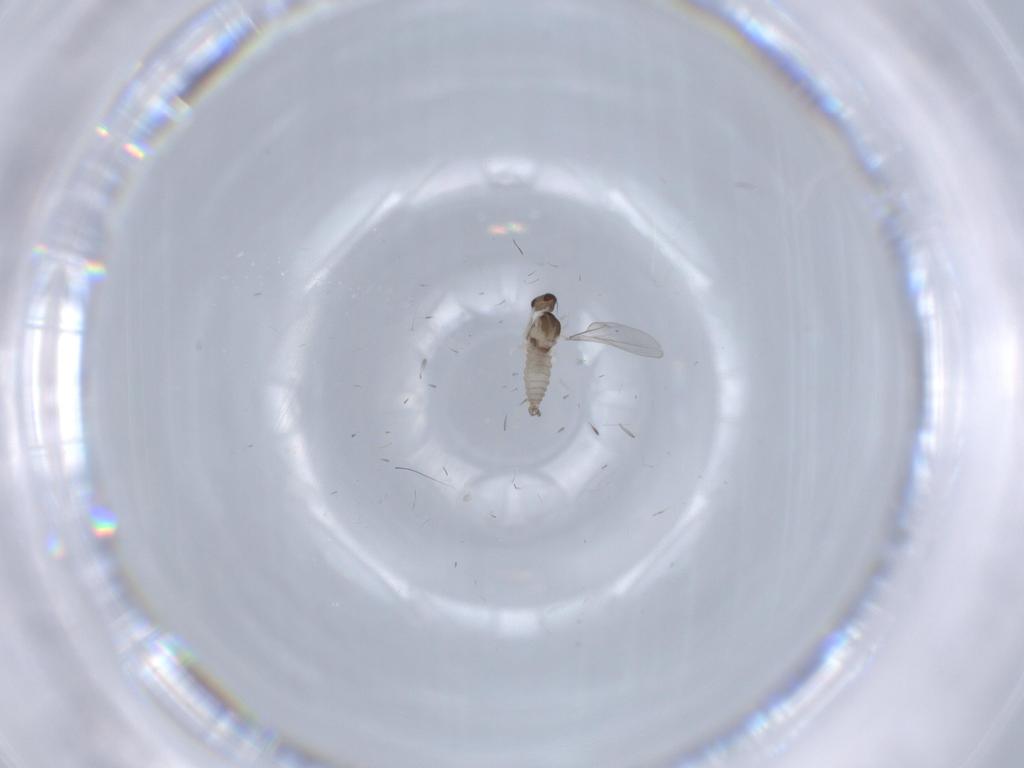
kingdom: Animalia
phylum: Arthropoda
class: Insecta
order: Diptera
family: Cecidomyiidae
